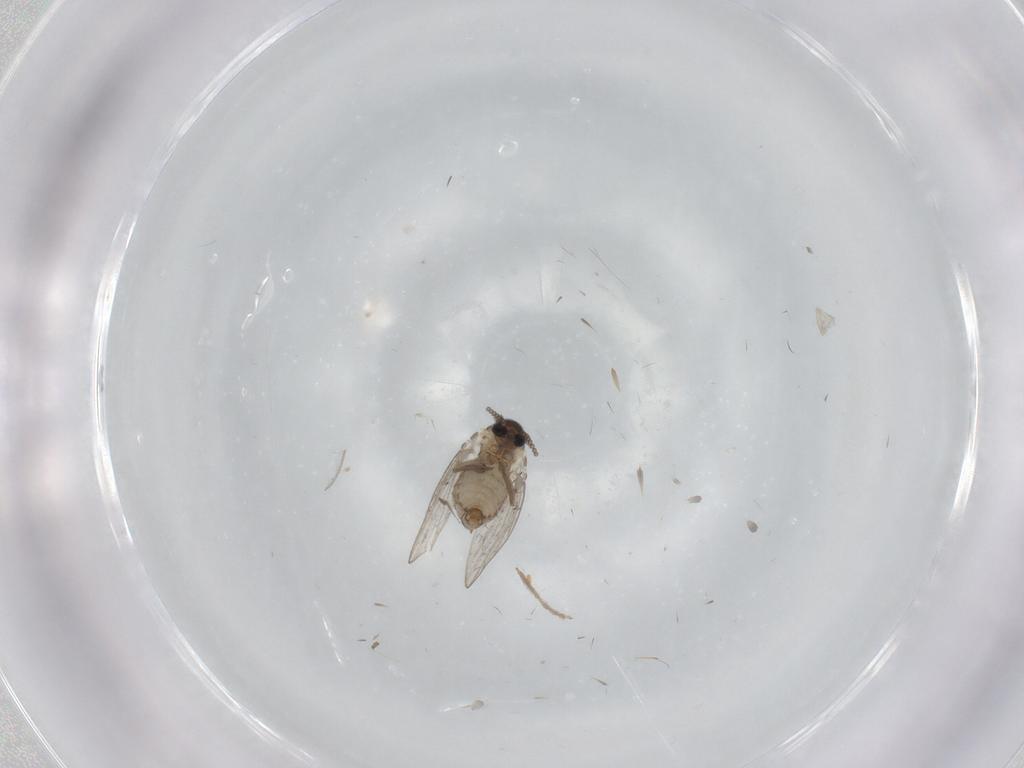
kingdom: Animalia
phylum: Arthropoda
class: Insecta
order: Diptera
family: Psychodidae
